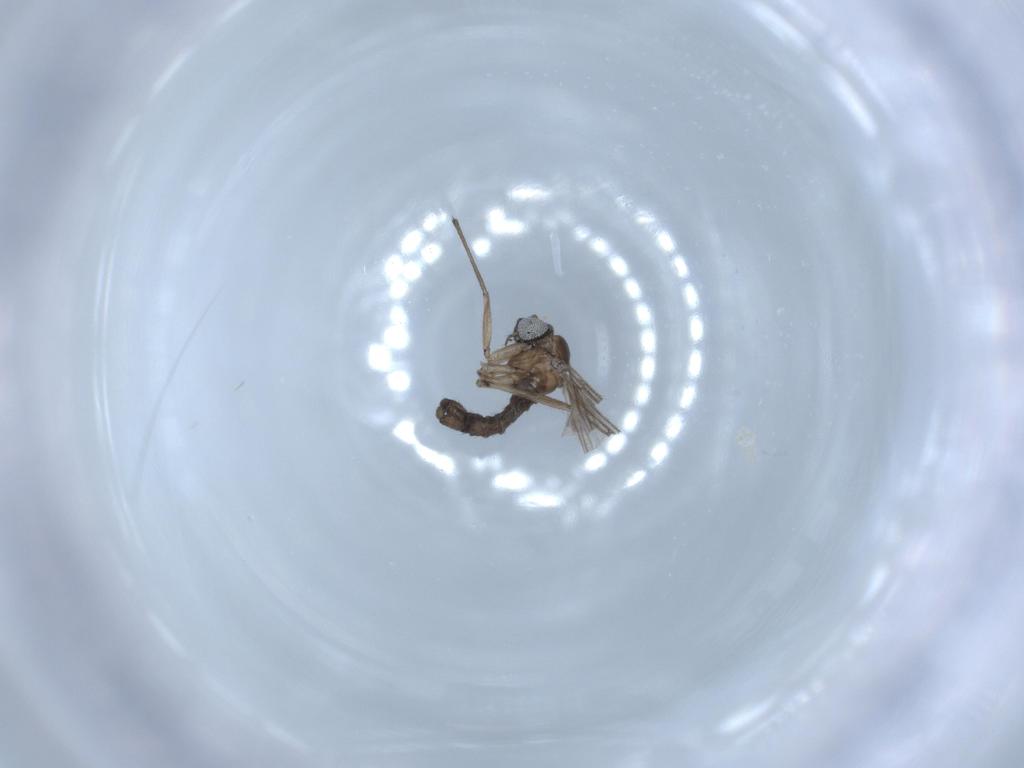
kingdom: Animalia
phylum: Arthropoda
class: Insecta
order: Diptera
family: Sciaridae
